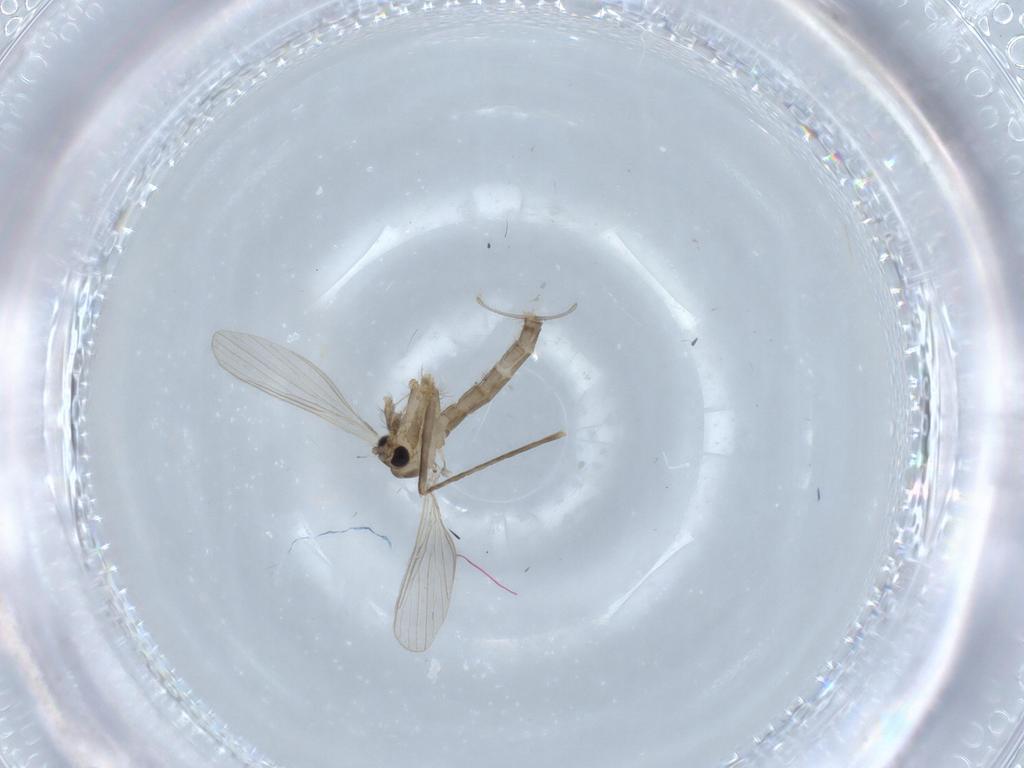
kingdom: Animalia
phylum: Arthropoda
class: Insecta
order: Diptera
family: Psychodidae
